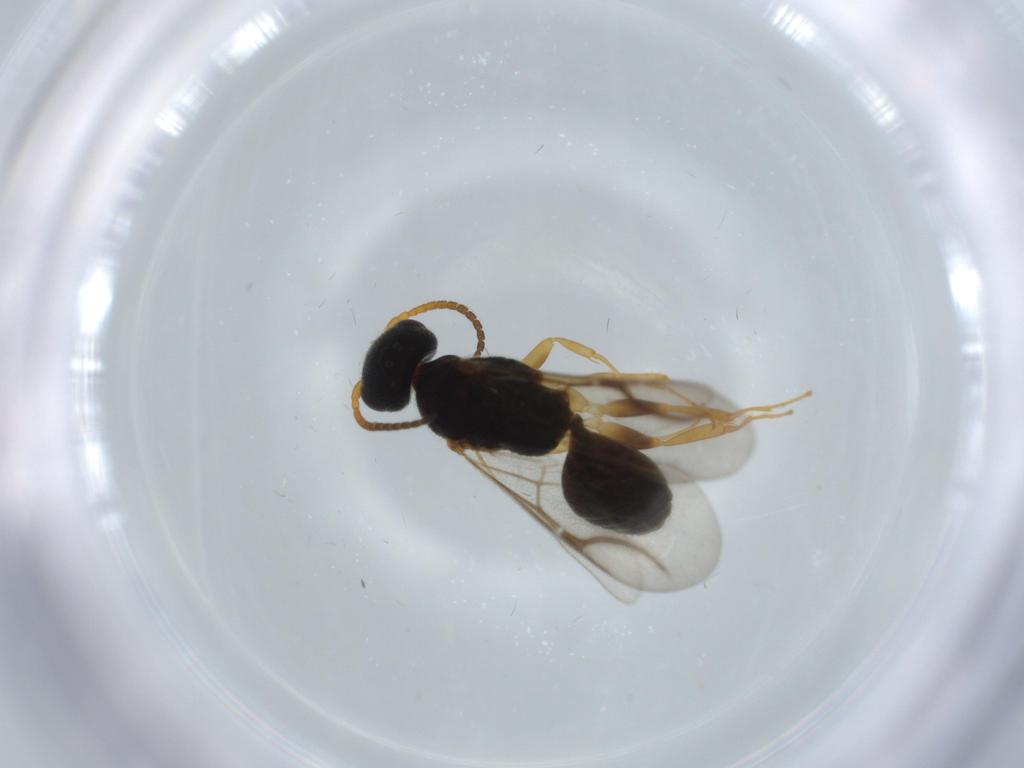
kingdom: Animalia
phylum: Arthropoda
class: Insecta
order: Hymenoptera
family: Bethylidae
